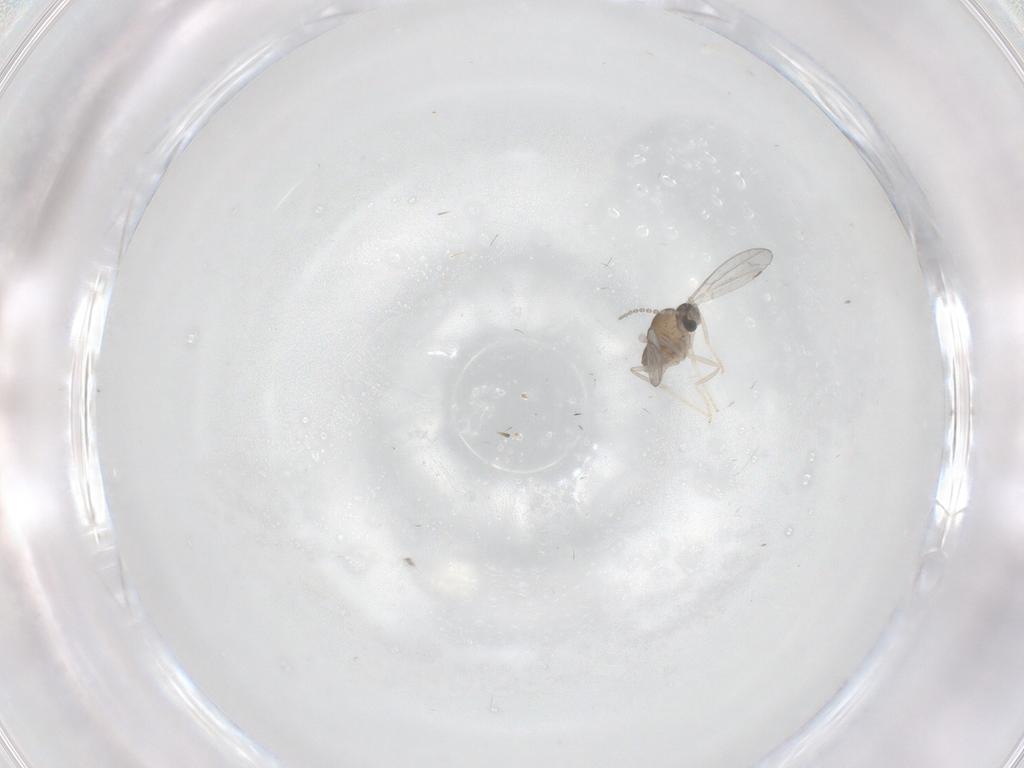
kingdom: Animalia
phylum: Arthropoda
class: Insecta
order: Diptera
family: Cecidomyiidae
